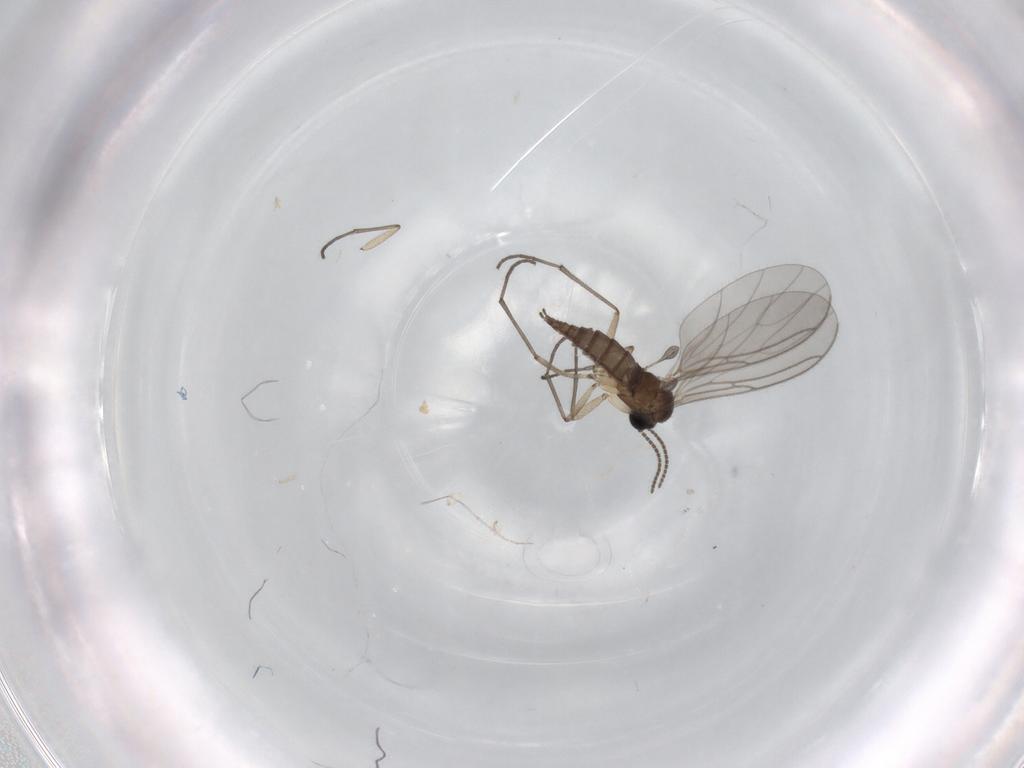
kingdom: Animalia
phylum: Arthropoda
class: Insecta
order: Diptera
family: Sciaridae
